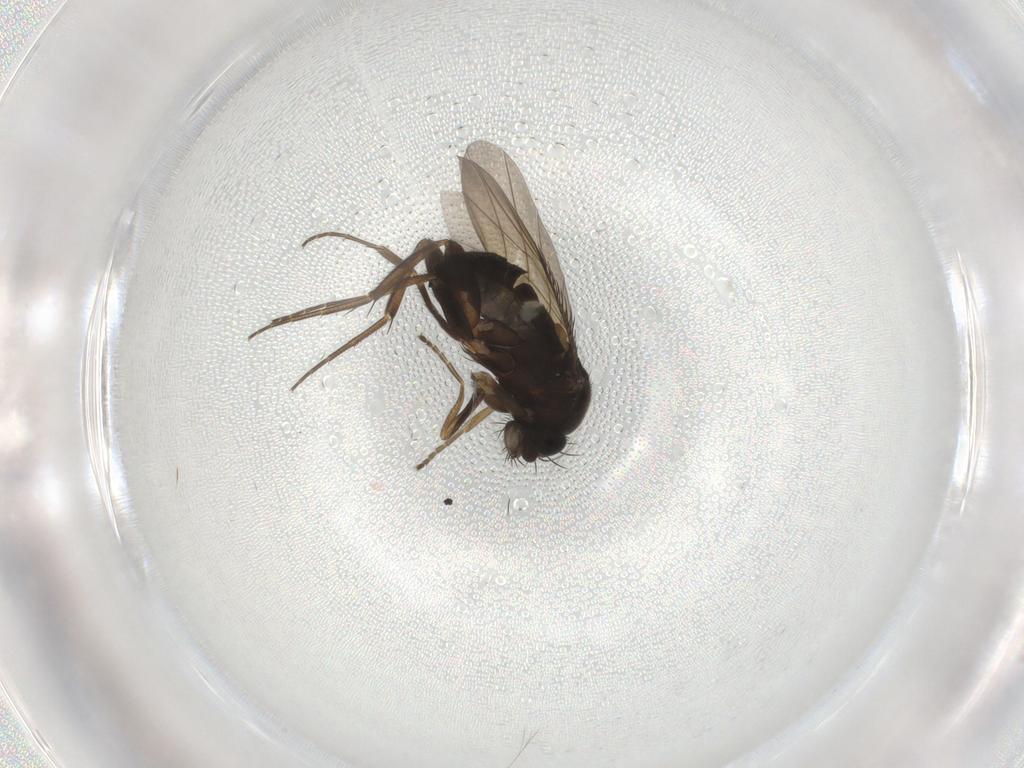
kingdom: Animalia
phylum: Arthropoda
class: Insecta
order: Diptera
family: Phoridae
